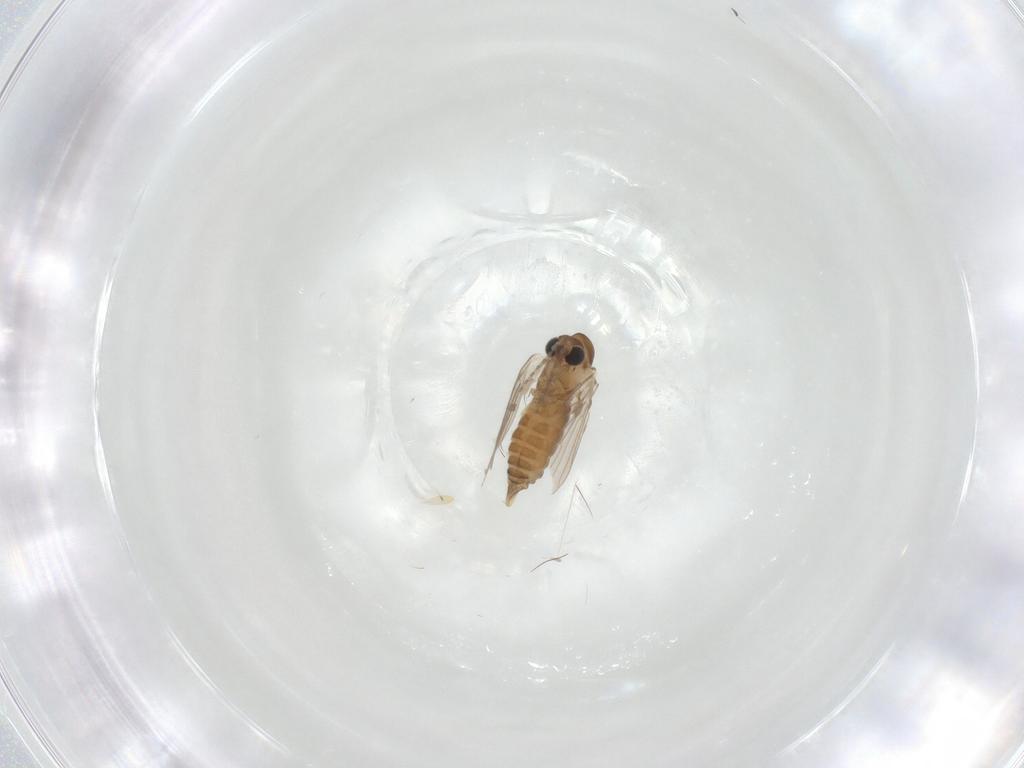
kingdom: Animalia
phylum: Arthropoda
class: Insecta
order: Diptera
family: Psychodidae
